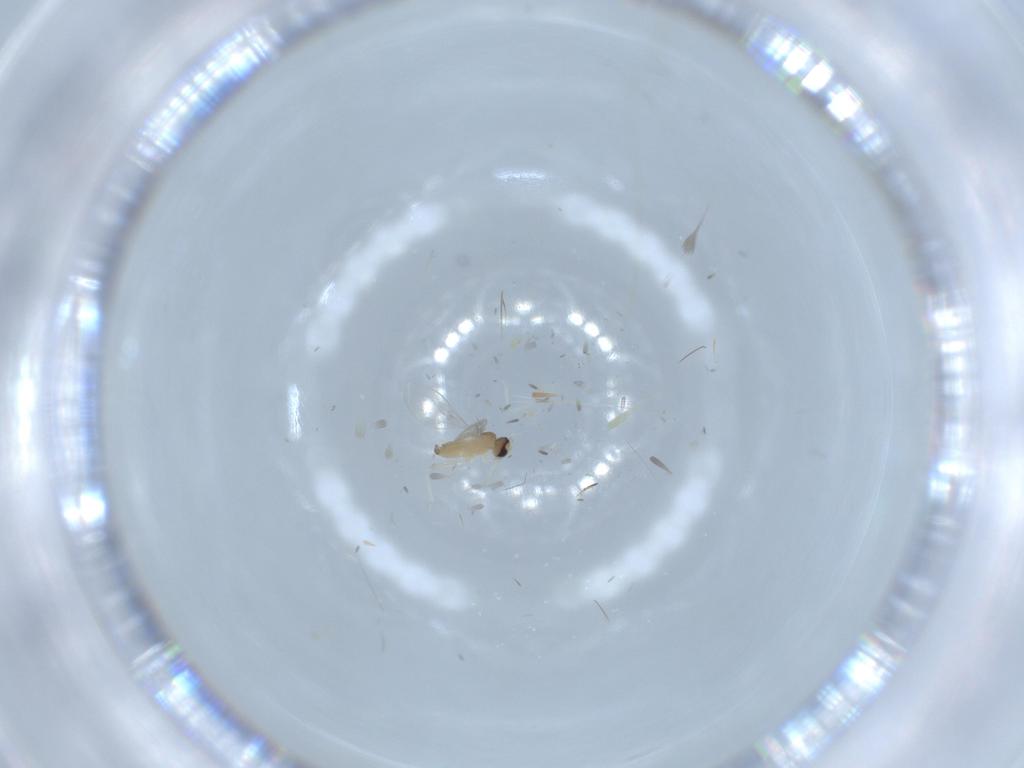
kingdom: Animalia
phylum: Arthropoda
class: Insecta
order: Diptera
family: Cecidomyiidae
